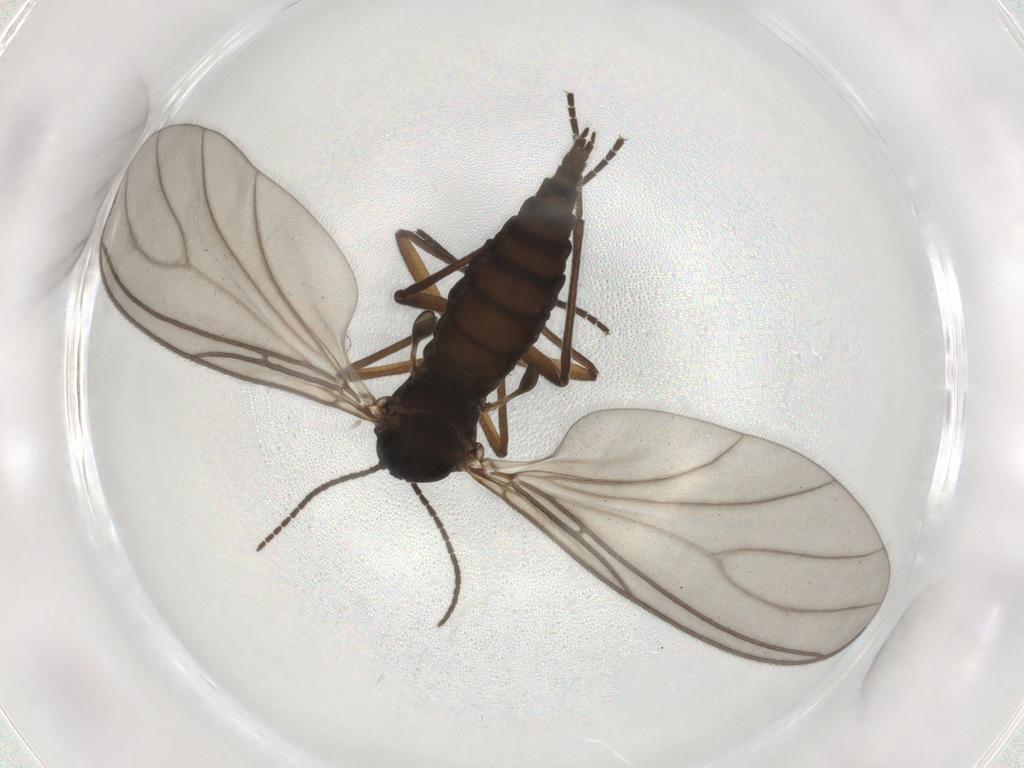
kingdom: Animalia
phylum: Arthropoda
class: Insecta
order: Diptera
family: Sciaridae
